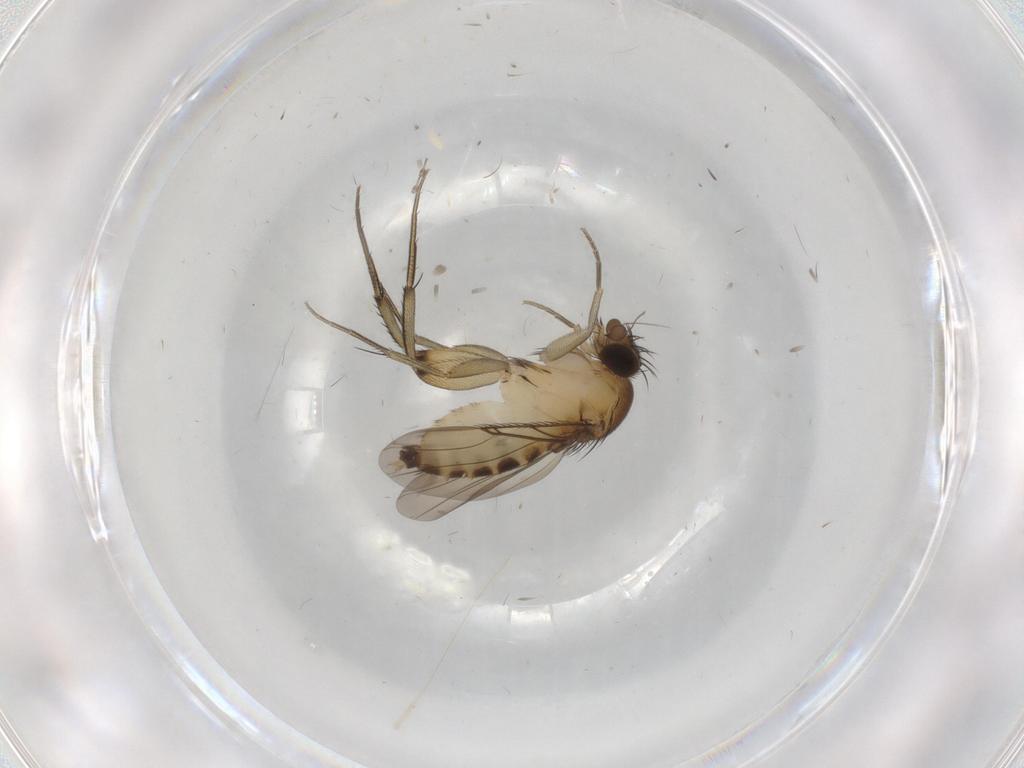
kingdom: Animalia
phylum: Arthropoda
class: Insecta
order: Diptera
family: Phoridae
